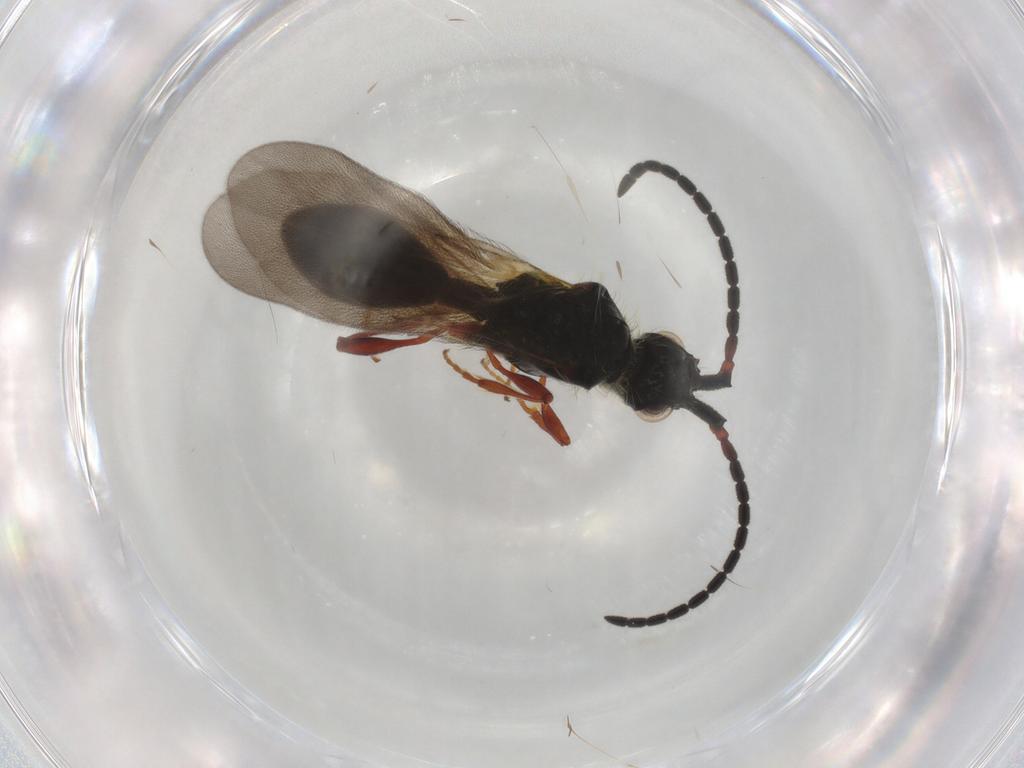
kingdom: Animalia
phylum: Arthropoda
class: Insecta
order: Hymenoptera
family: Diapriidae
